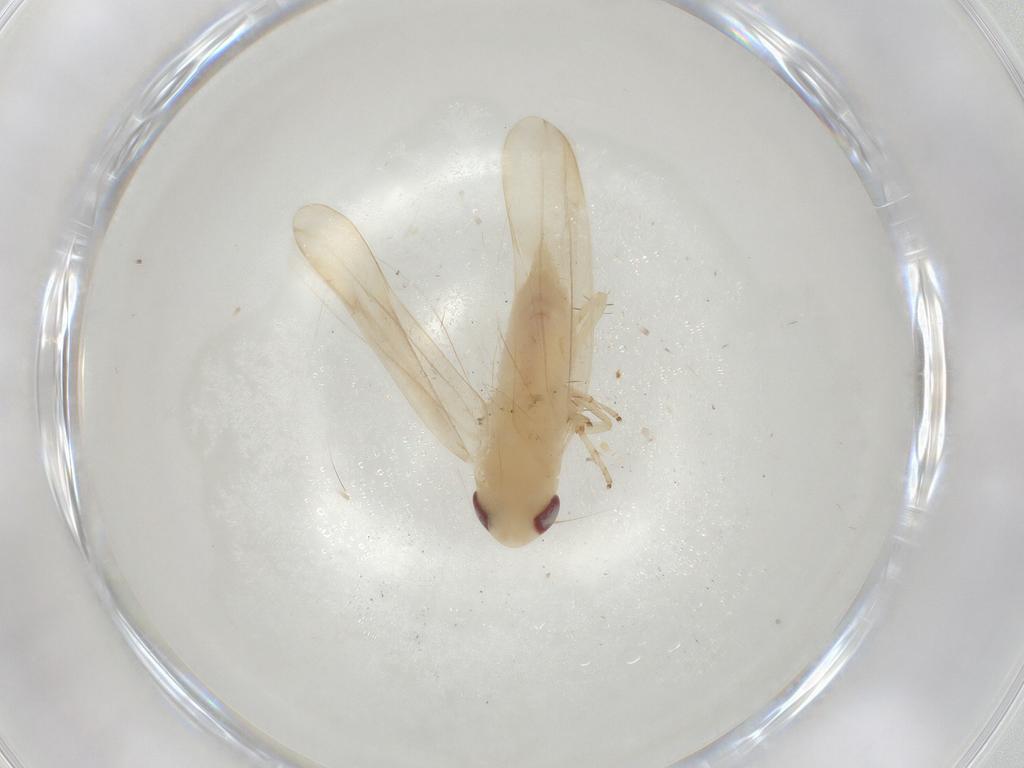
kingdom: Animalia
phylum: Arthropoda
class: Insecta
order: Hemiptera
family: Cicadellidae
